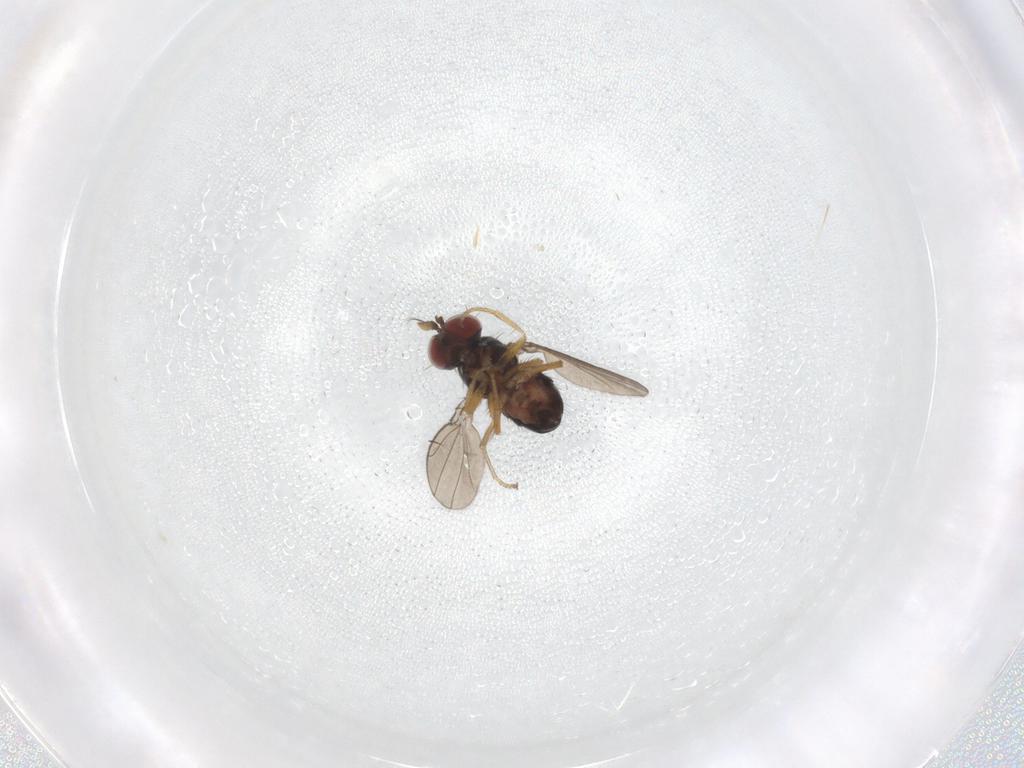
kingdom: Animalia
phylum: Arthropoda
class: Insecta
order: Diptera
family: Ephydridae
